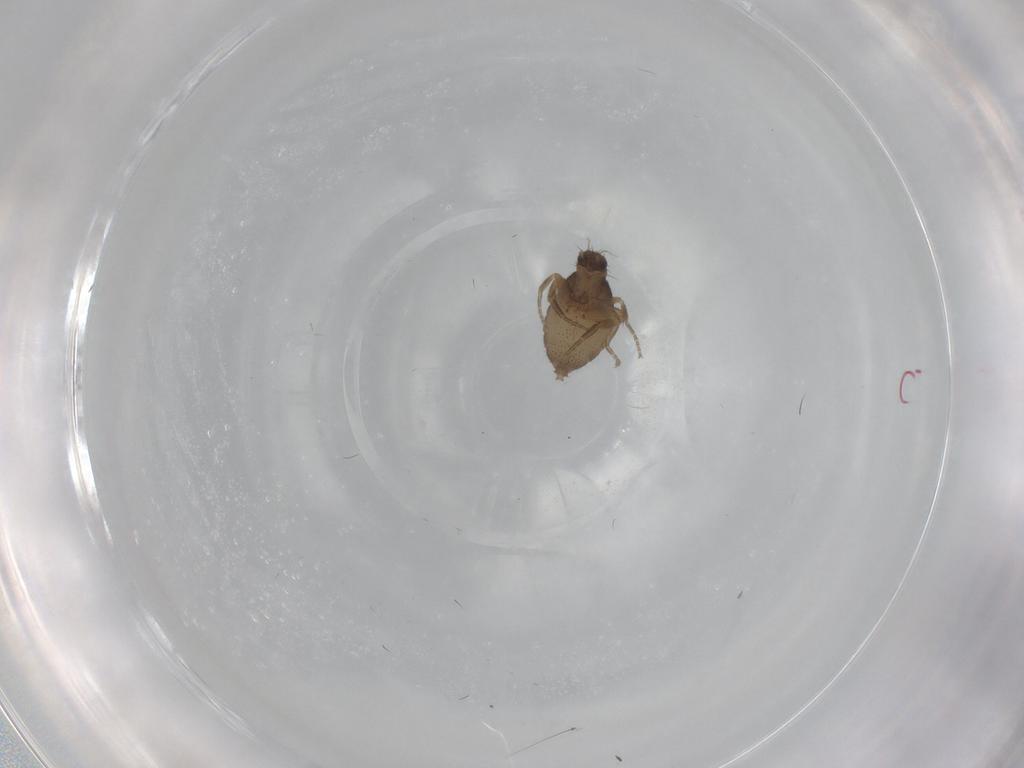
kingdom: Animalia
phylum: Arthropoda
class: Insecta
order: Diptera
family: Phoridae
